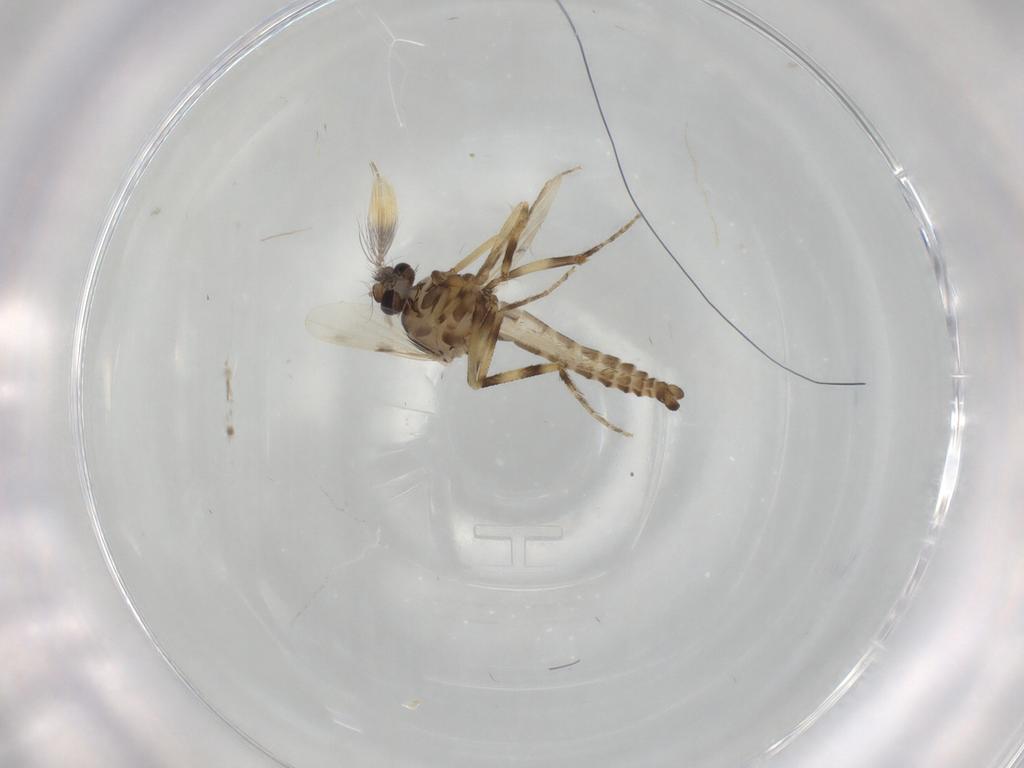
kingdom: Animalia
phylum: Arthropoda
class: Insecta
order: Diptera
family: Ceratopogonidae
